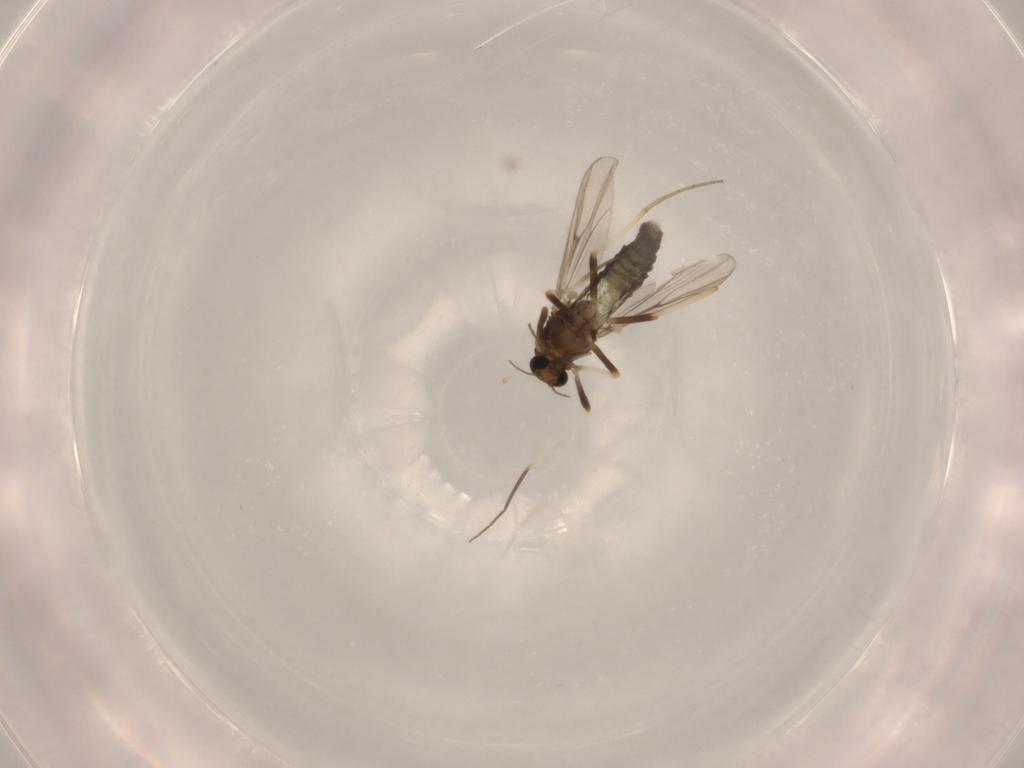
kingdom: Animalia
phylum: Arthropoda
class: Insecta
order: Diptera
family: Chironomidae
